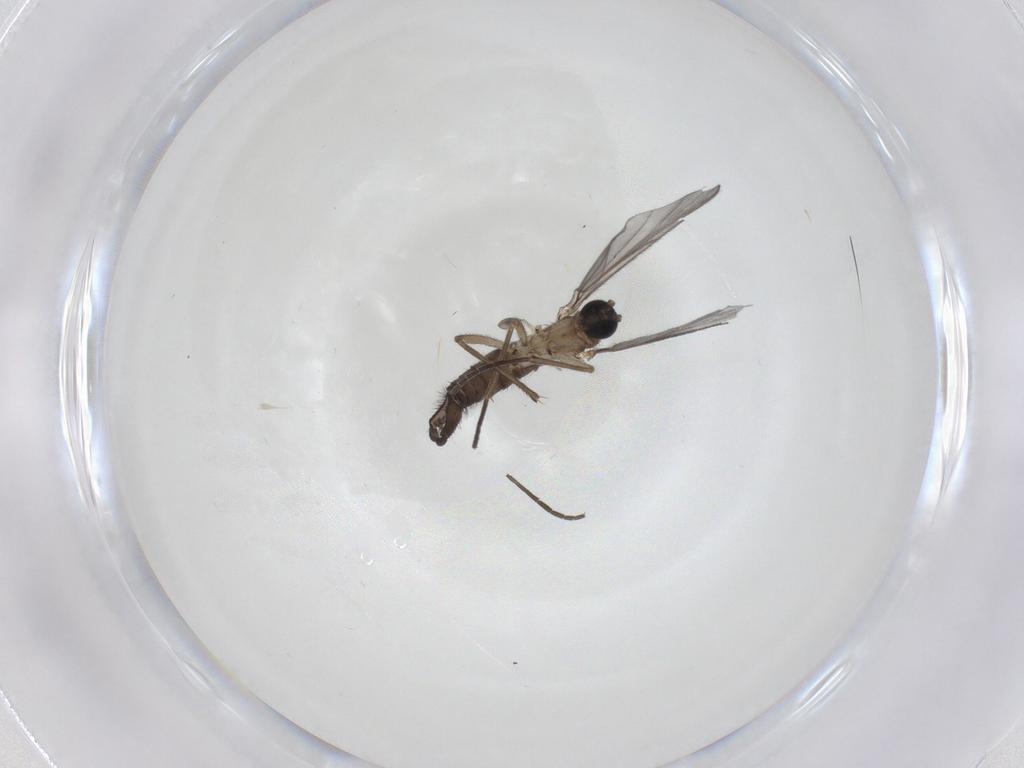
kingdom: Animalia
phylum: Arthropoda
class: Insecta
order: Diptera
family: Sciaridae
